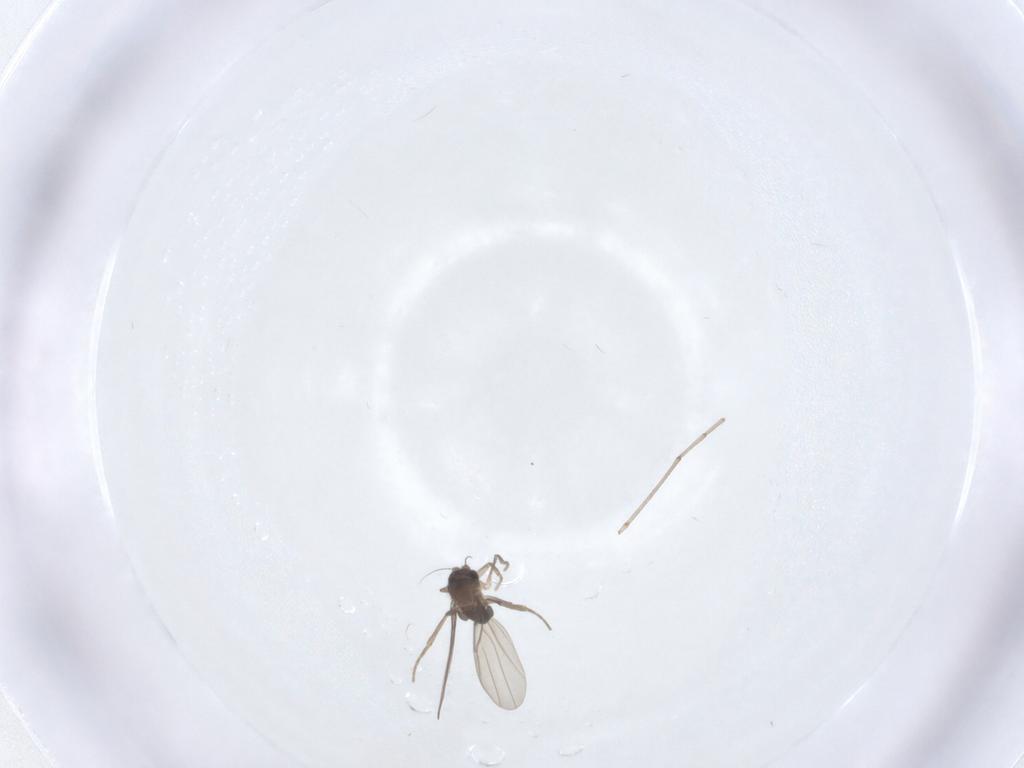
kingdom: Animalia
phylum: Arthropoda
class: Insecta
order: Diptera
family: Phoridae
